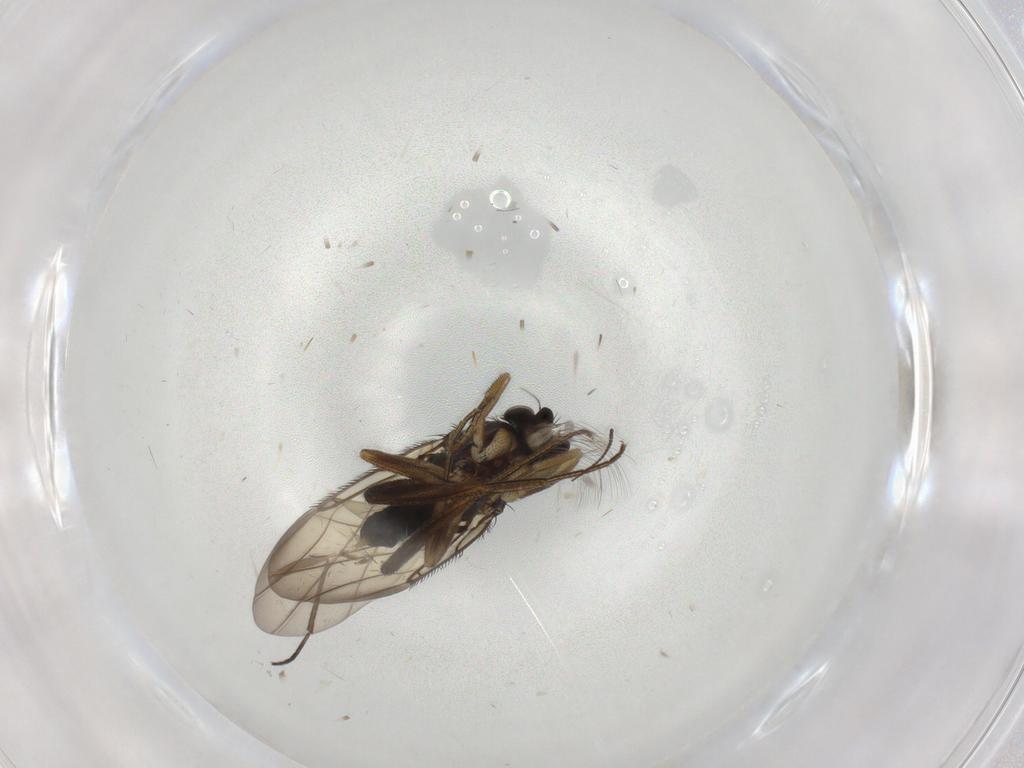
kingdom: Animalia
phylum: Arthropoda
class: Insecta
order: Diptera
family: Phoridae
